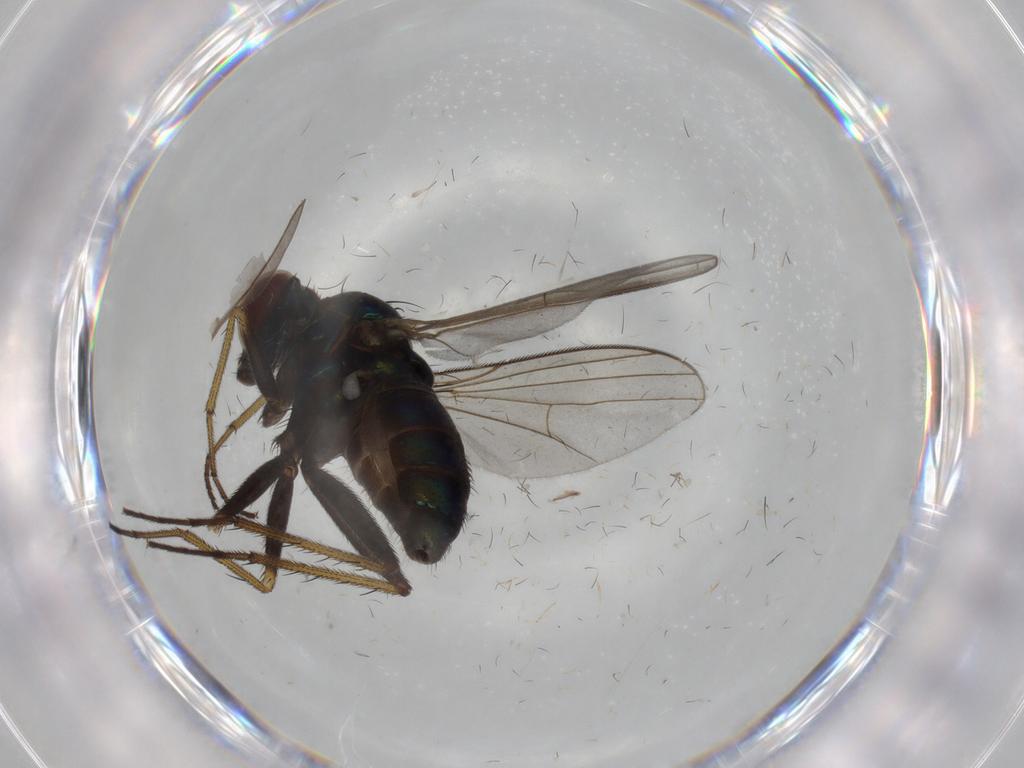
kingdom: Animalia
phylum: Arthropoda
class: Insecta
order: Diptera
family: Dolichopodidae
